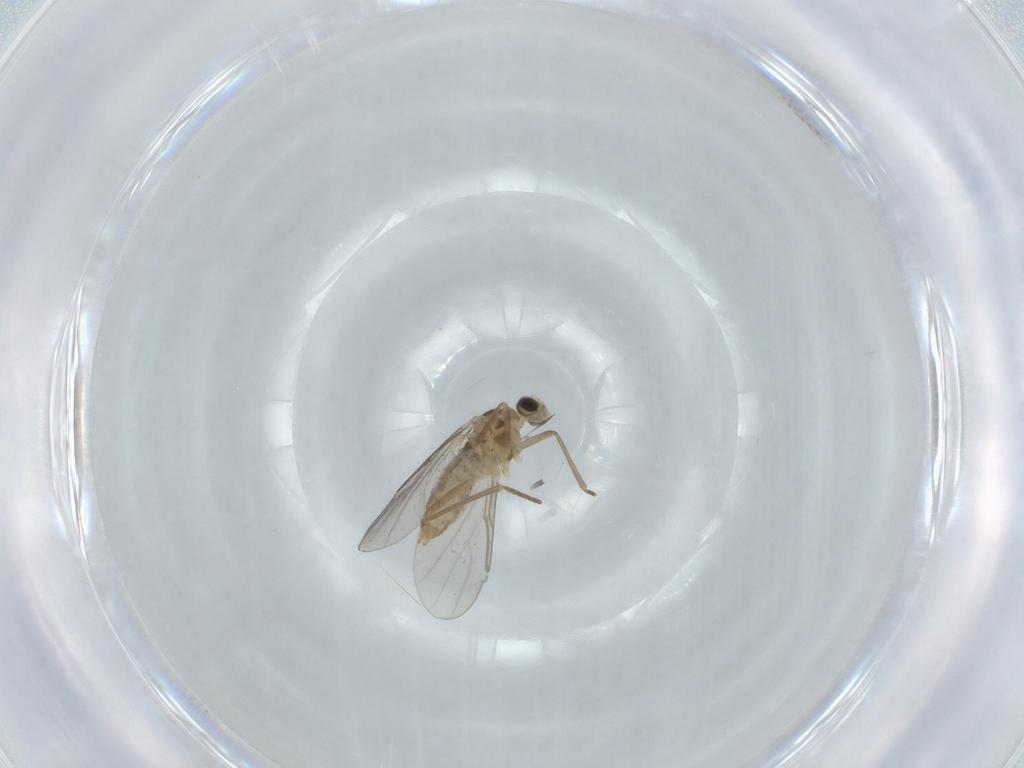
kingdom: Animalia
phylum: Arthropoda
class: Insecta
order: Diptera
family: Cecidomyiidae
